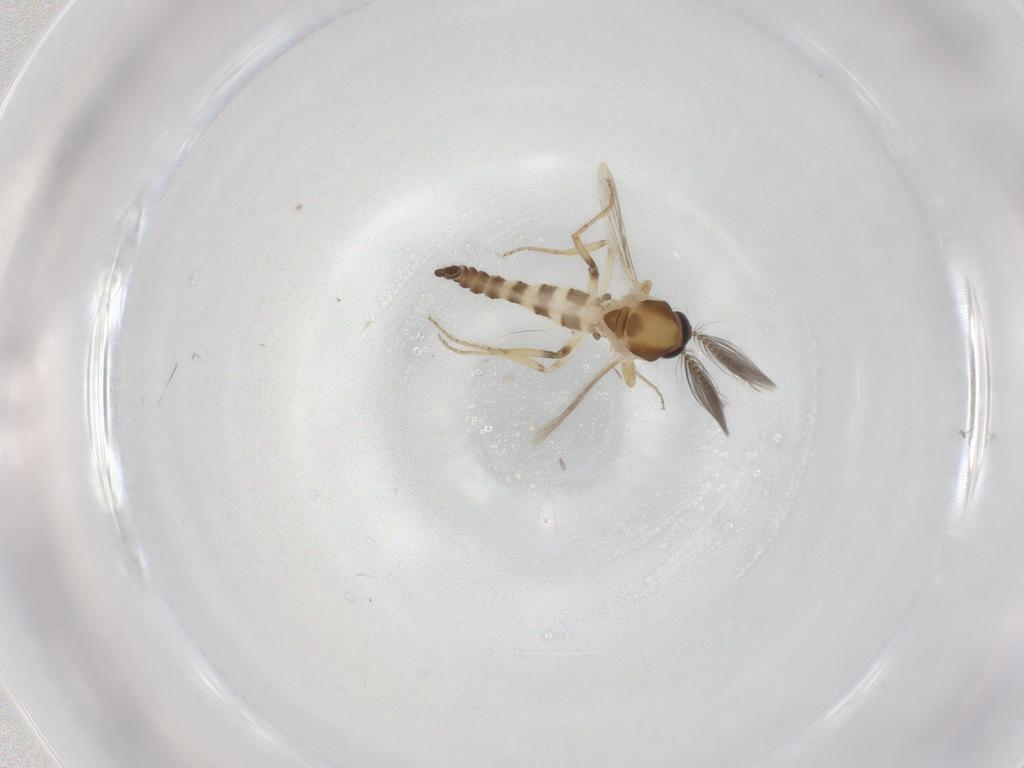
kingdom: Animalia
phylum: Arthropoda
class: Insecta
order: Diptera
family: Ceratopogonidae
